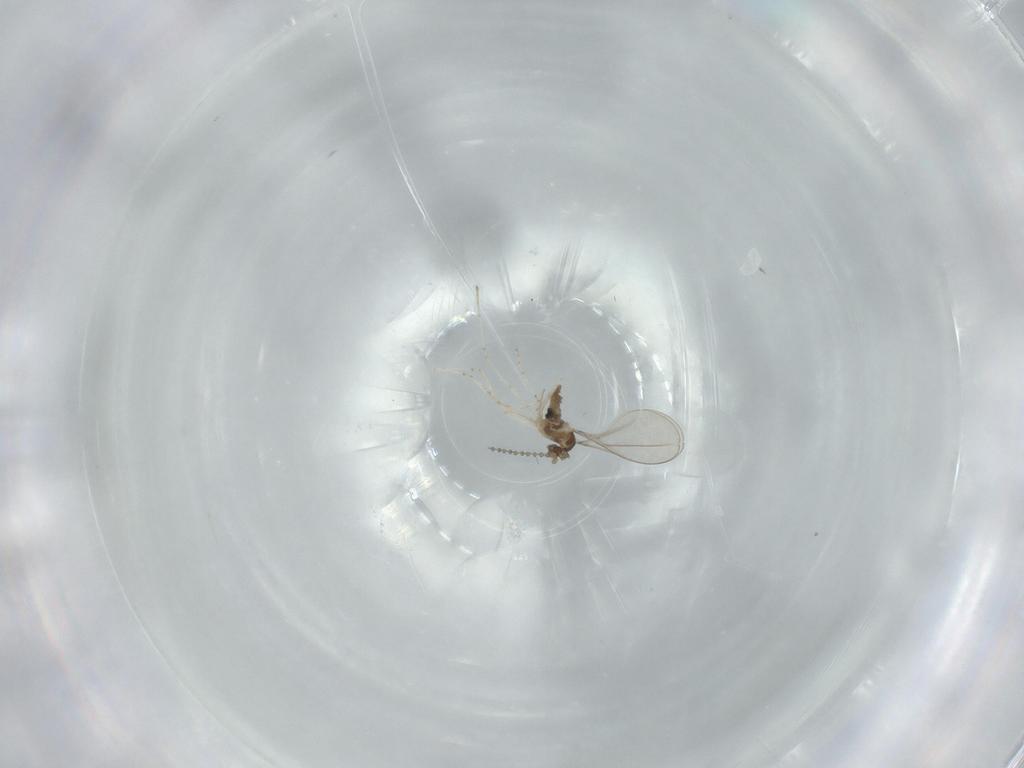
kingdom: Animalia
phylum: Arthropoda
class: Insecta
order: Diptera
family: Cecidomyiidae
